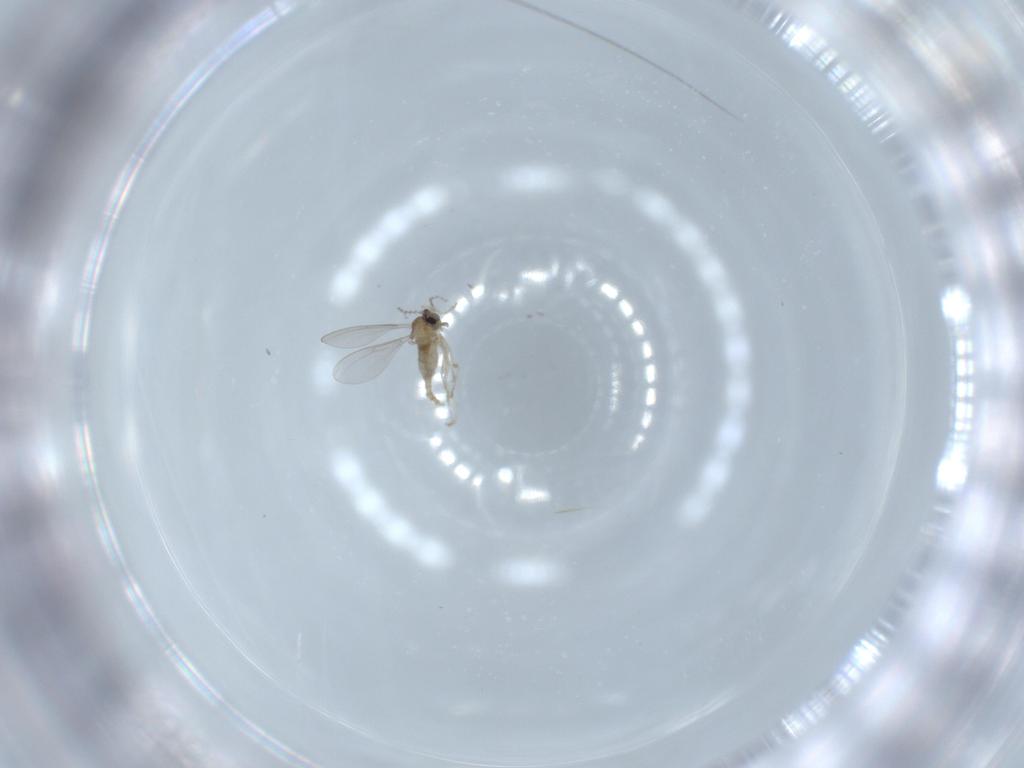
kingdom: Animalia
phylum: Arthropoda
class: Insecta
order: Diptera
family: Cecidomyiidae
